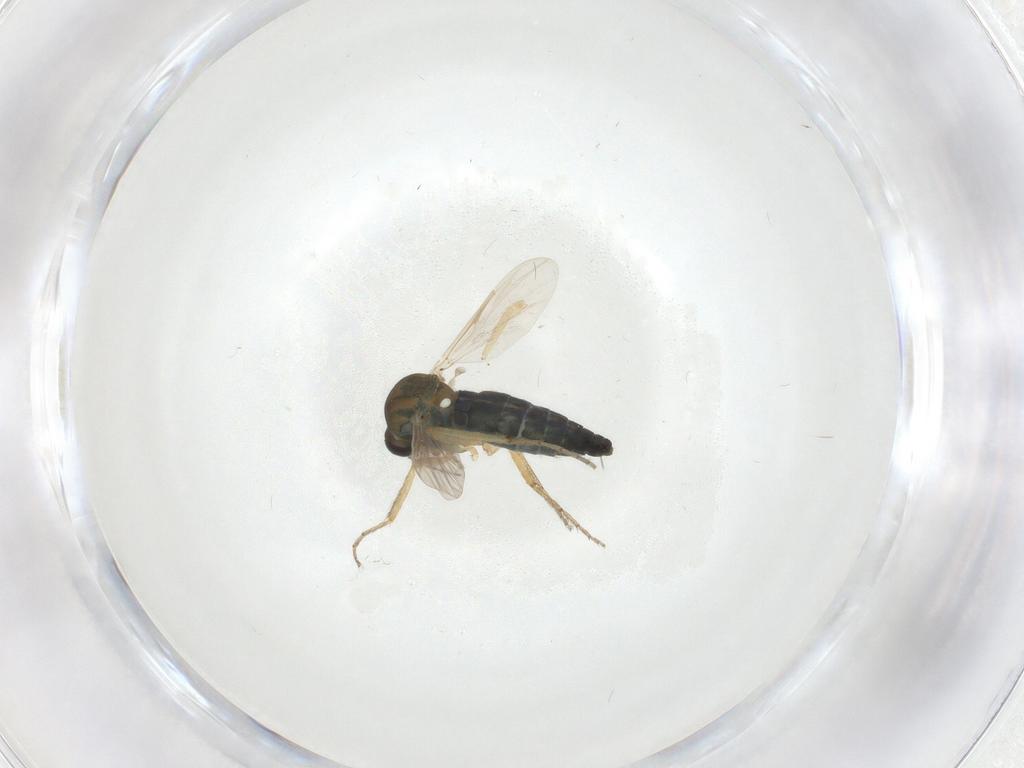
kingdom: Animalia
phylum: Arthropoda
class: Insecta
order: Diptera
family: Ceratopogonidae
